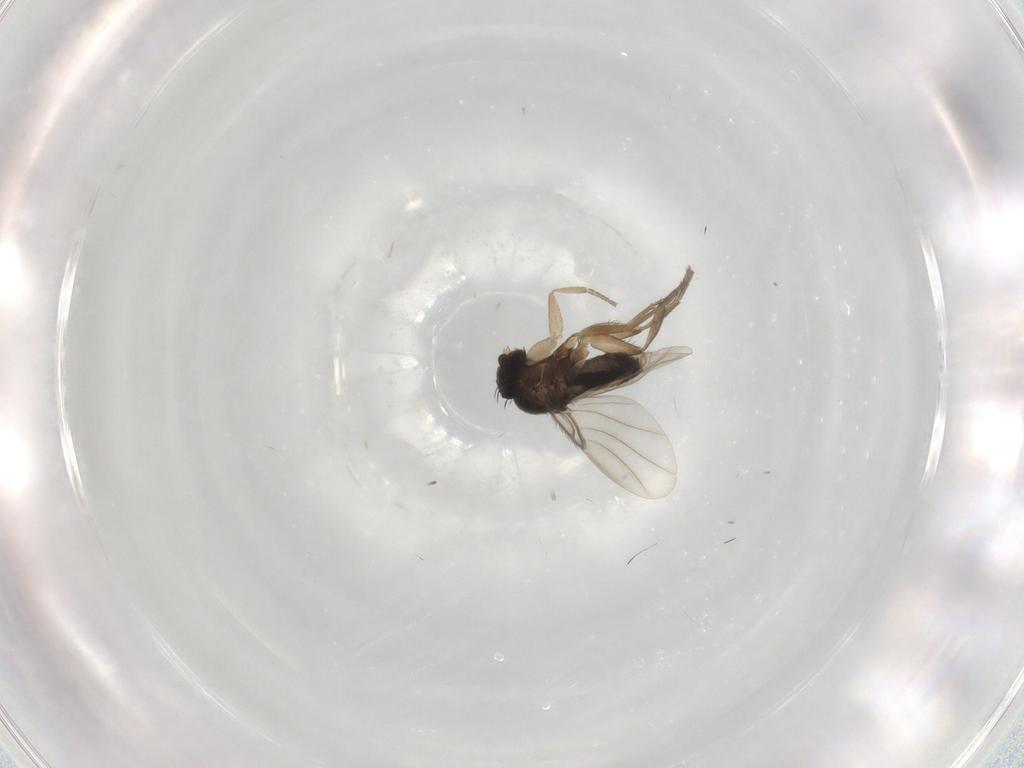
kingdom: Animalia
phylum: Arthropoda
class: Insecta
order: Diptera
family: Phoridae
